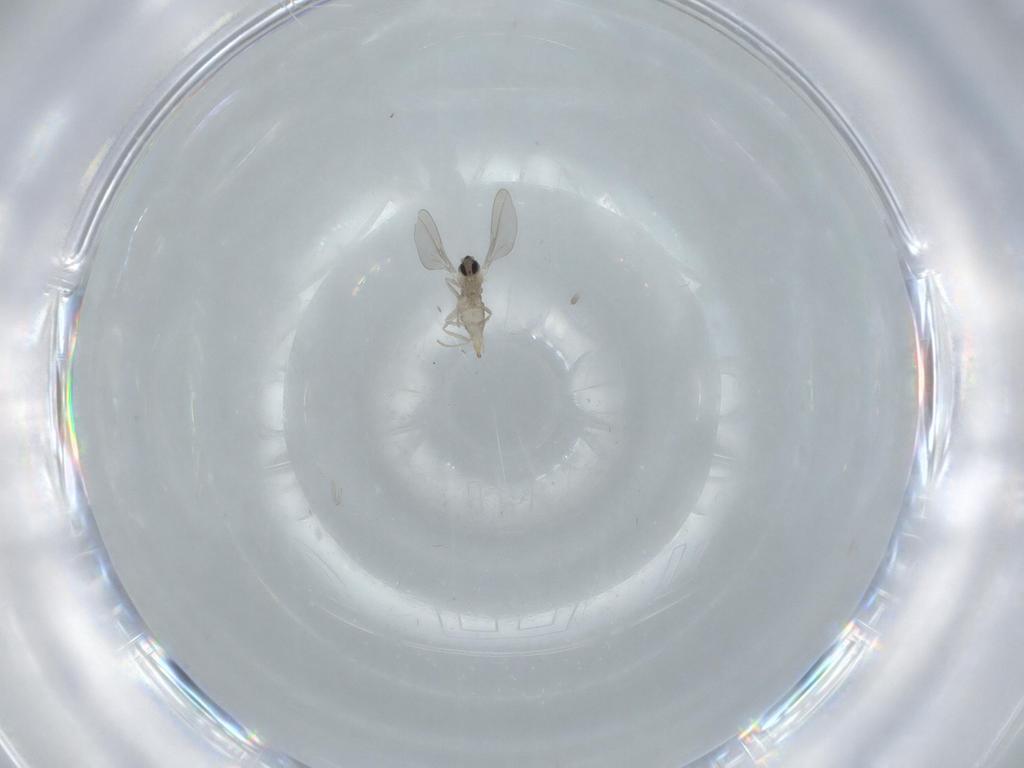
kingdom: Animalia
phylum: Arthropoda
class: Insecta
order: Diptera
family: Cecidomyiidae
